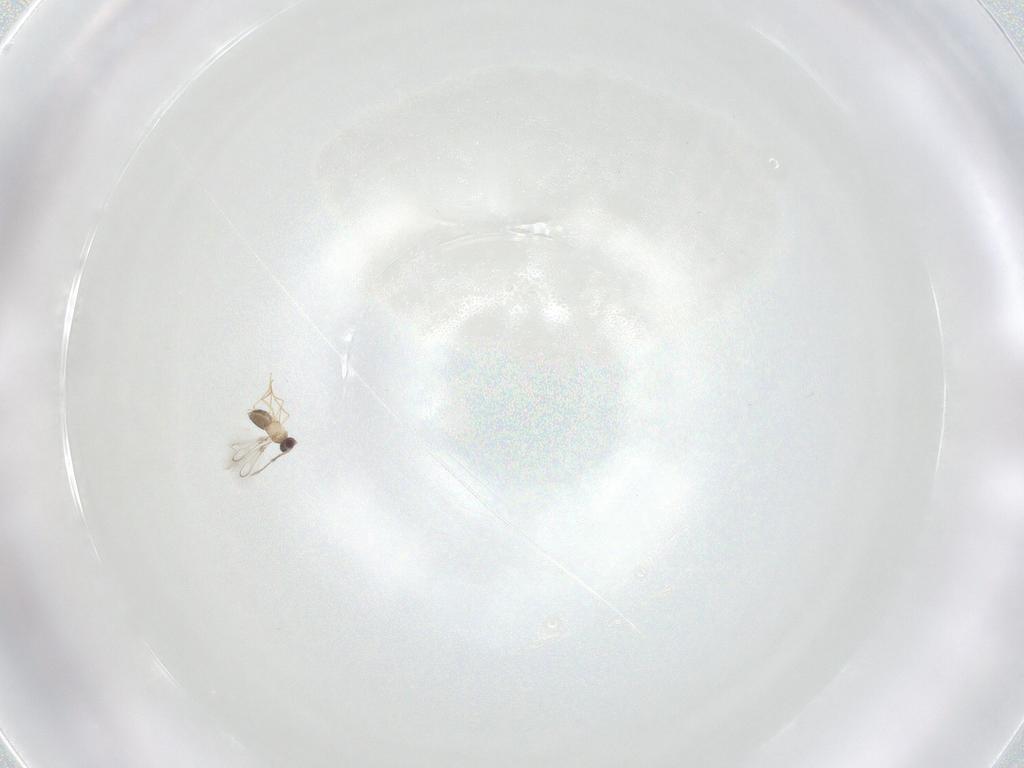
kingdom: Animalia
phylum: Arthropoda
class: Insecta
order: Hymenoptera
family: Mymaridae
